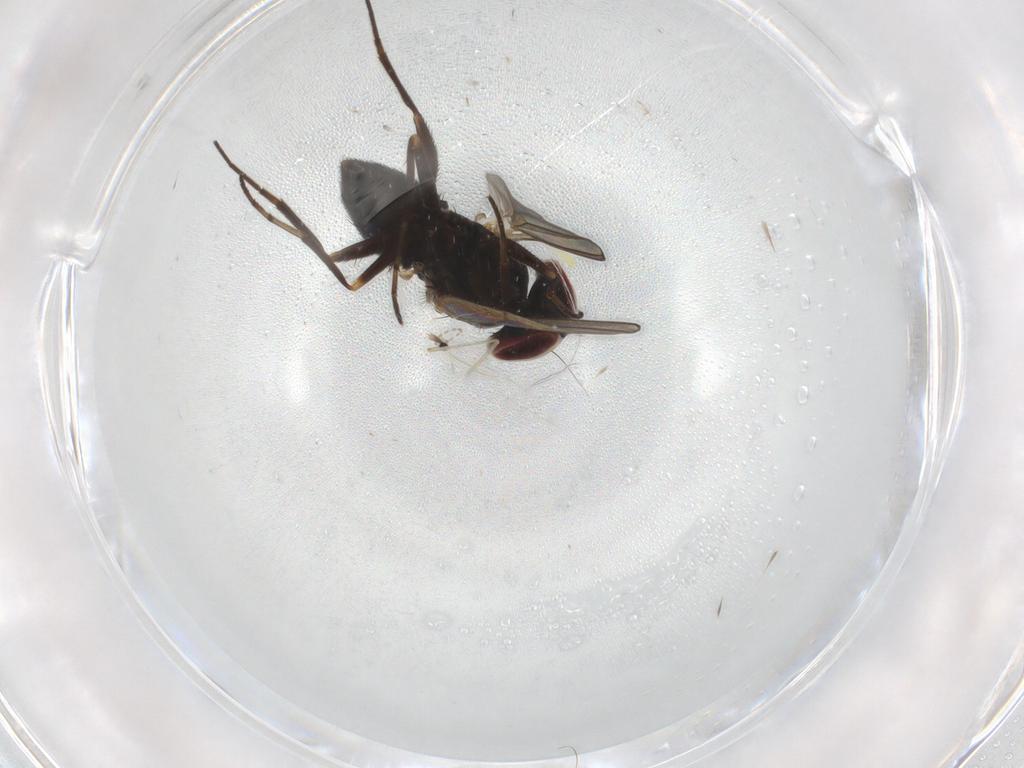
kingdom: Animalia
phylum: Arthropoda
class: Insecta
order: Diptera
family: Dolichopodidae
